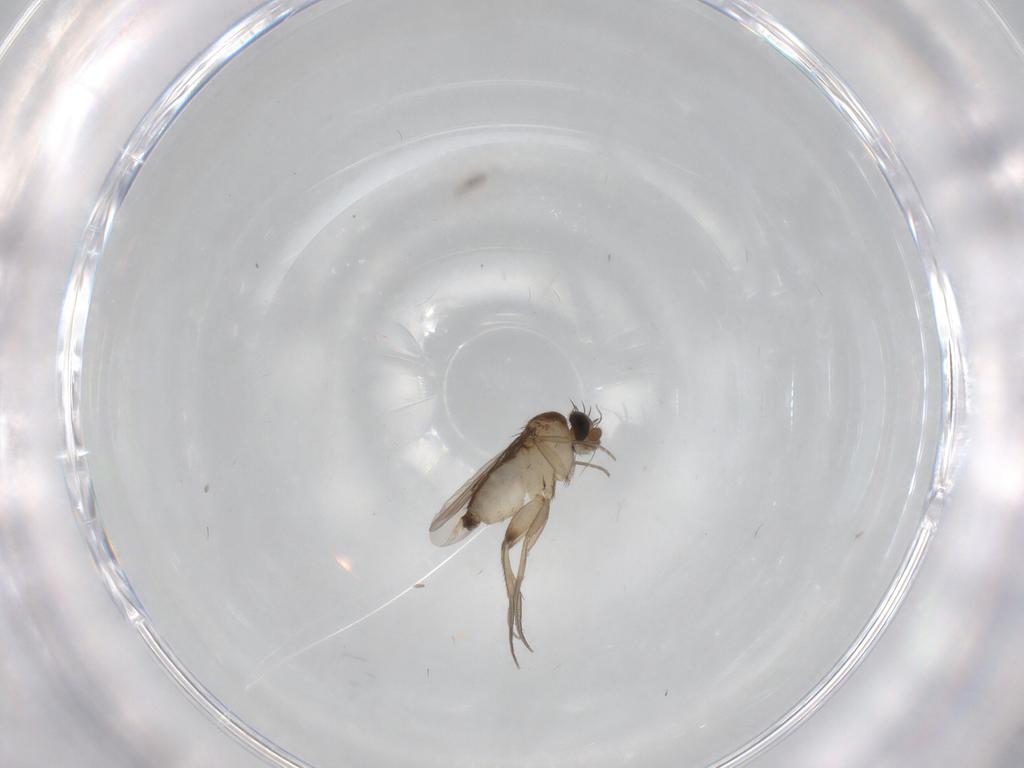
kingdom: Animalia
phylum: Arthropoda
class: Insecta
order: Diptera
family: Phoridae
